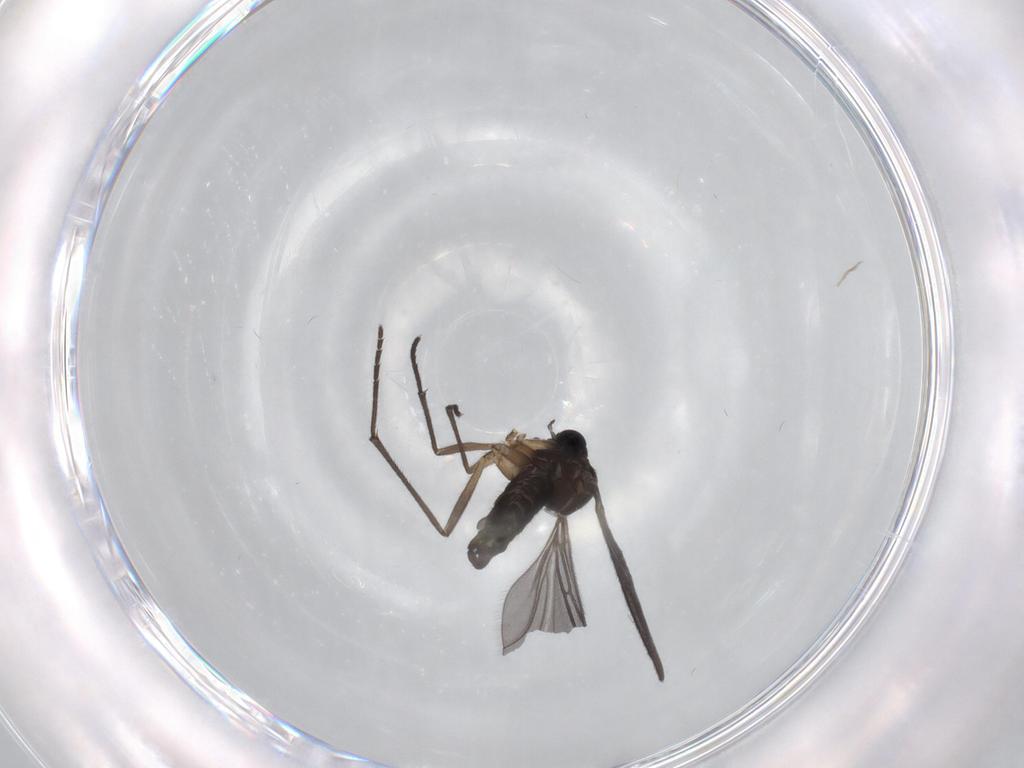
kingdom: Animalia
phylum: Arthropoda
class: Insecta
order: Diptera
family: Sciaridae
